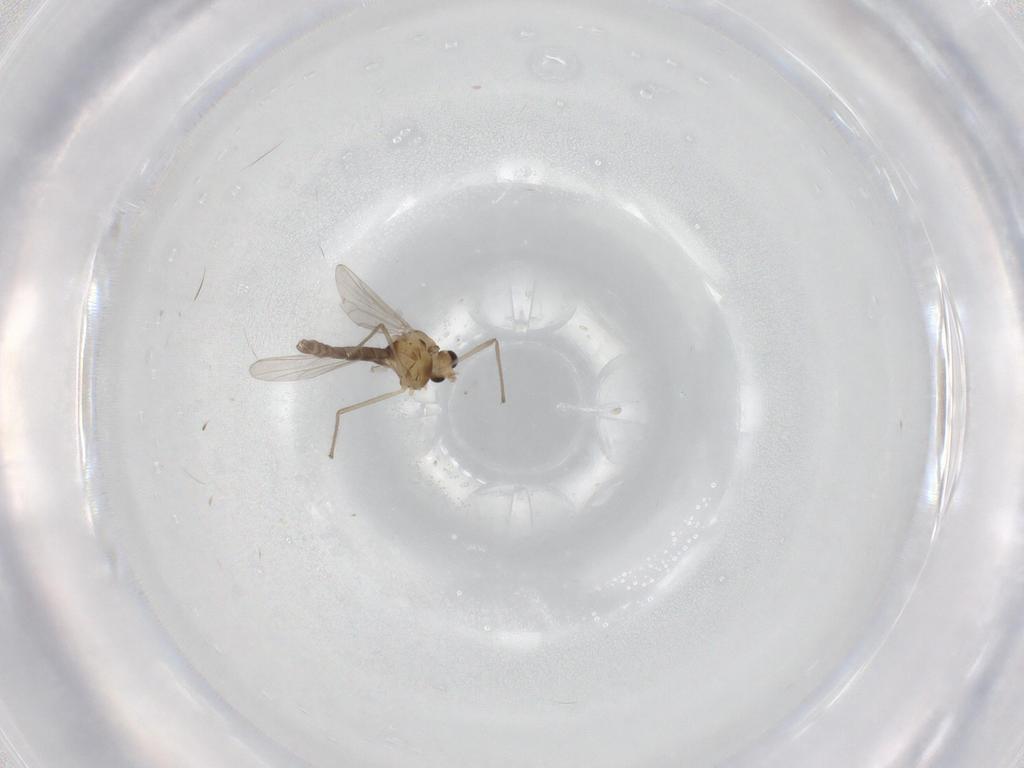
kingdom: Animalia
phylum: Arthropoda
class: Insecta
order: Diptera
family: Chironomidae
